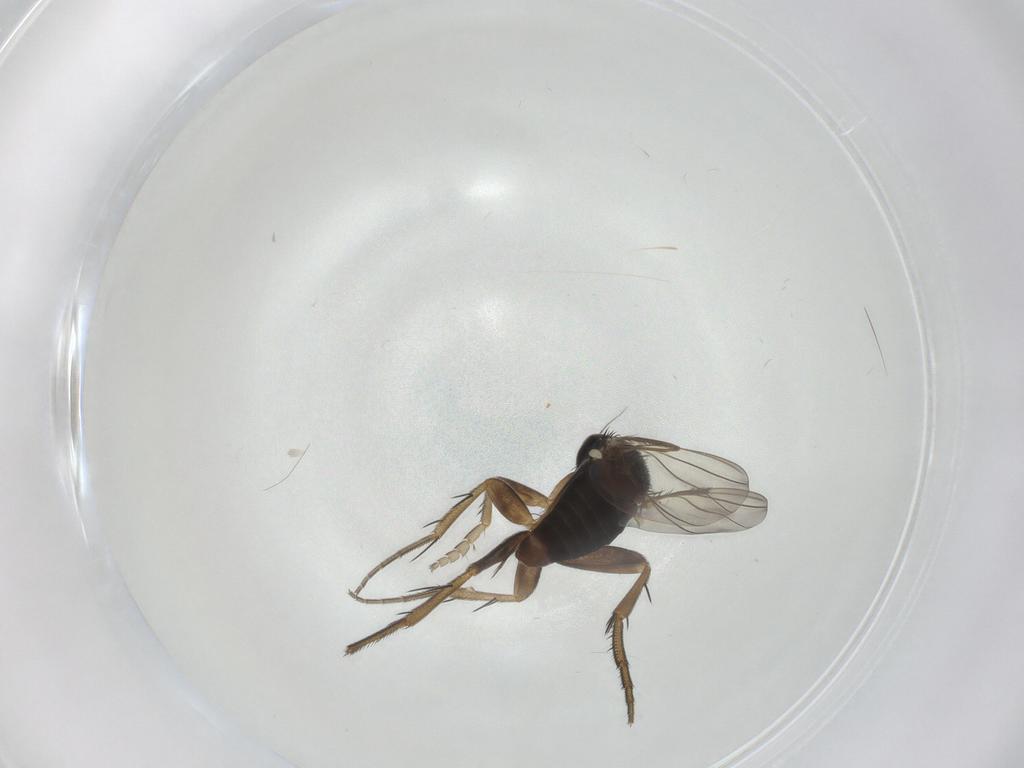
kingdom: Animalia
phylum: Arthropoda
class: Insecta
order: Diptera
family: Phoridae
